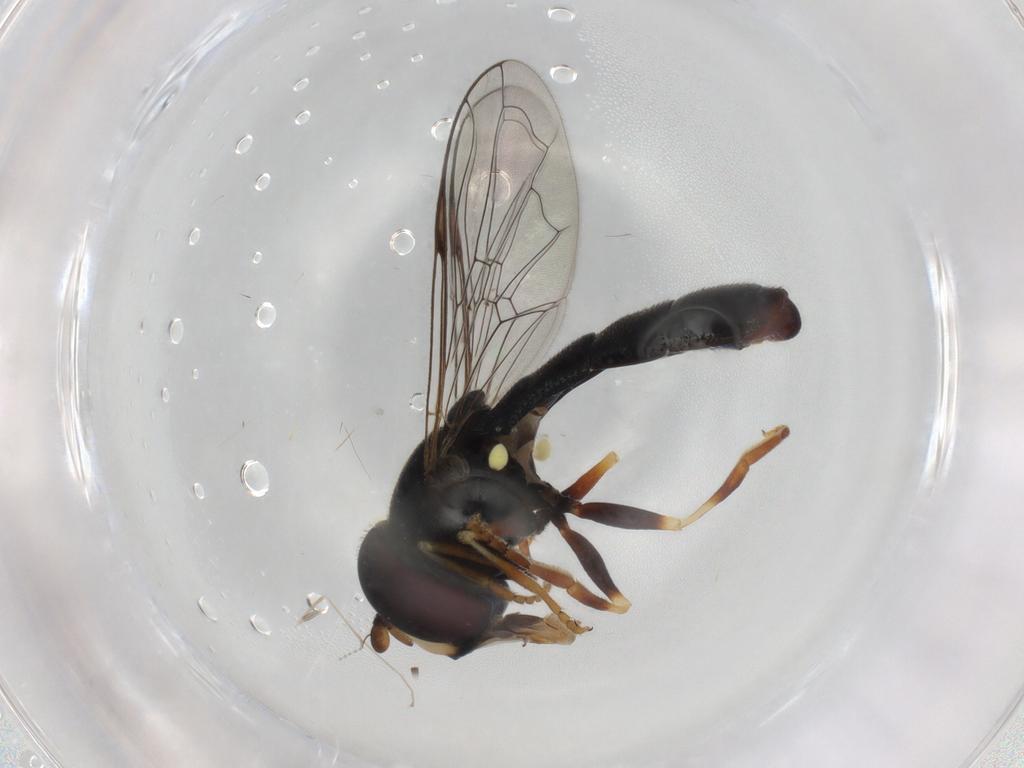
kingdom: Animalia
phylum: Arthropoda
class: Insecta
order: Diptera
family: Syrphidae
